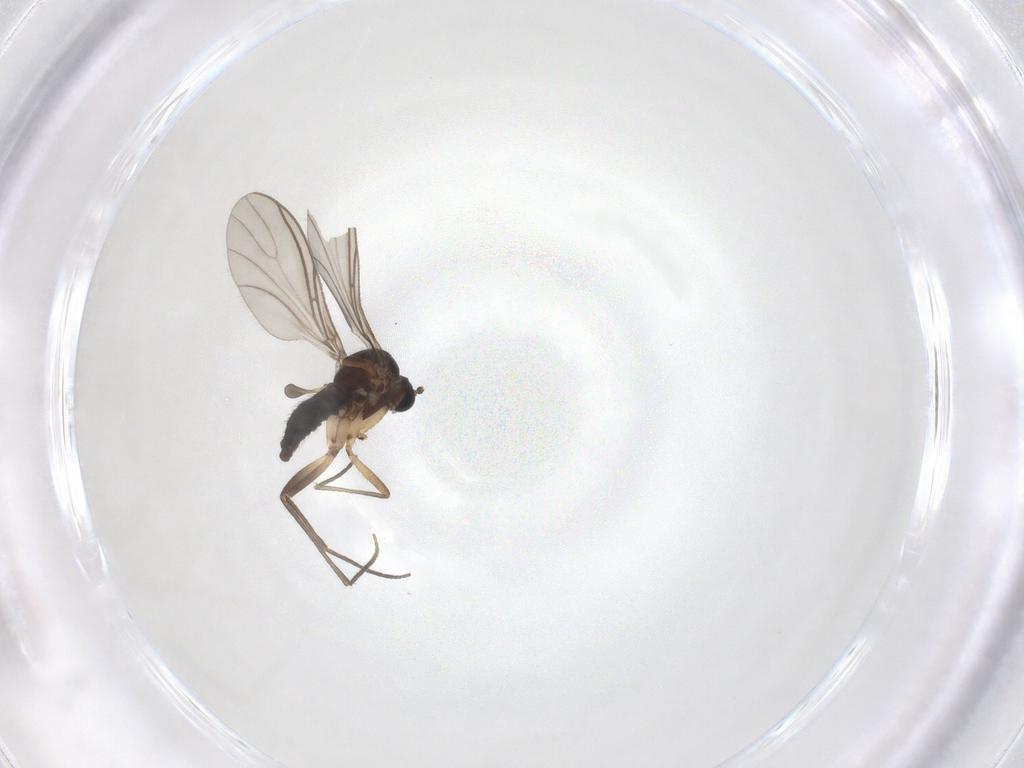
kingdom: Animalia
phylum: Arthropoda
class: Insecta
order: Diptera
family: Sciaridae
